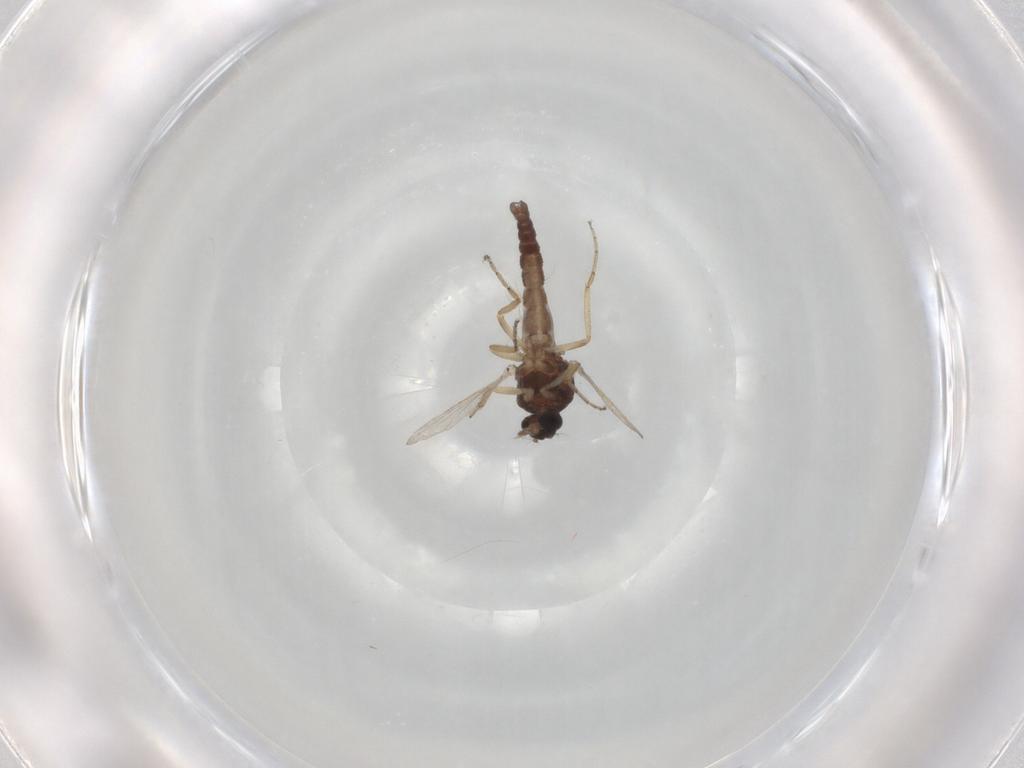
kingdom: Animalia
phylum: Arthropoda
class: Insecta
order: Diptera
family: Ceratopogonidae
